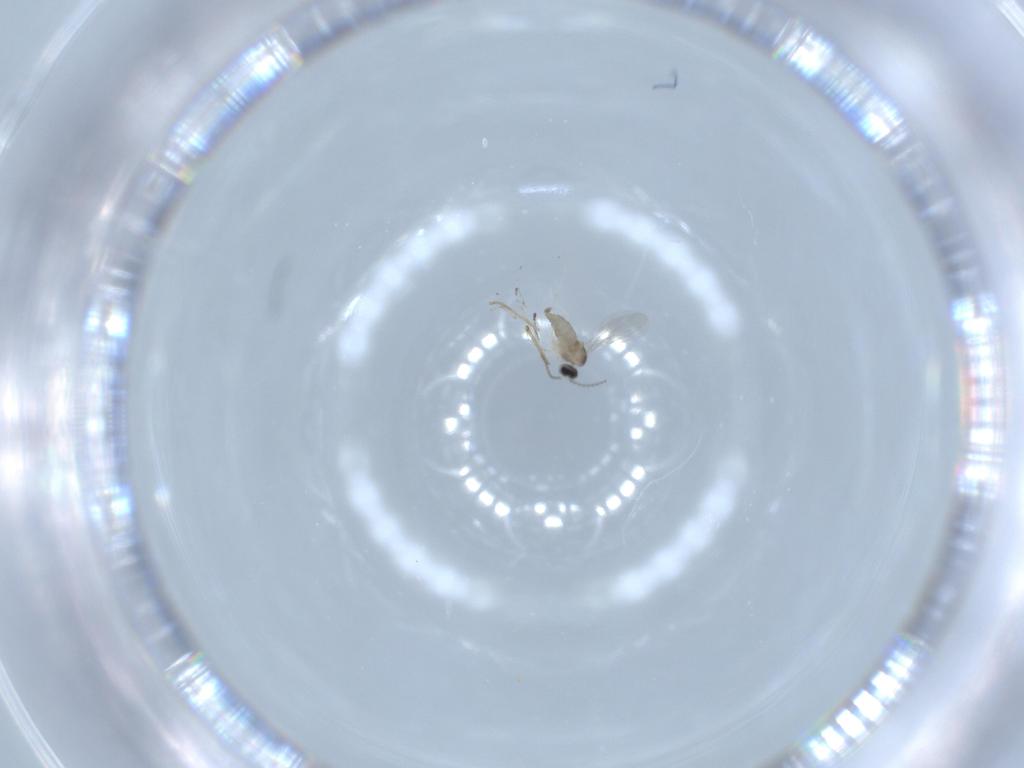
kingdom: Animalia
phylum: Arthropoda
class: Insecta
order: Diptera
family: Cecidomyiidae
